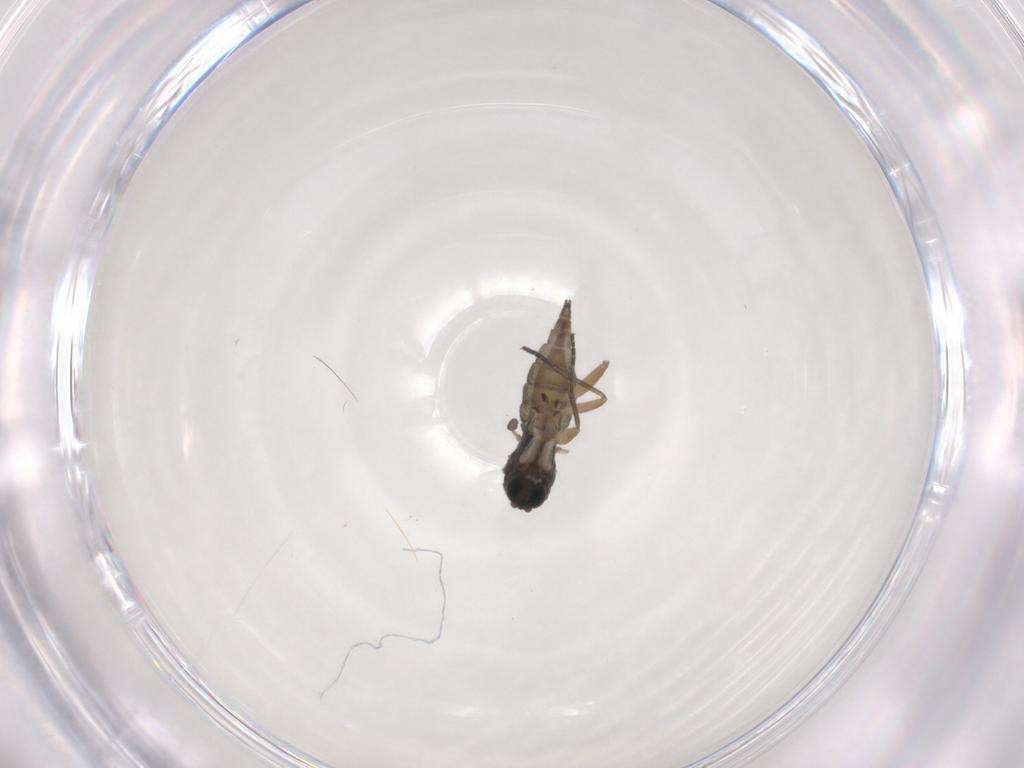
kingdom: Animalia
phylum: Arthropoda
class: Insecta
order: Diptera
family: Sciaridae
